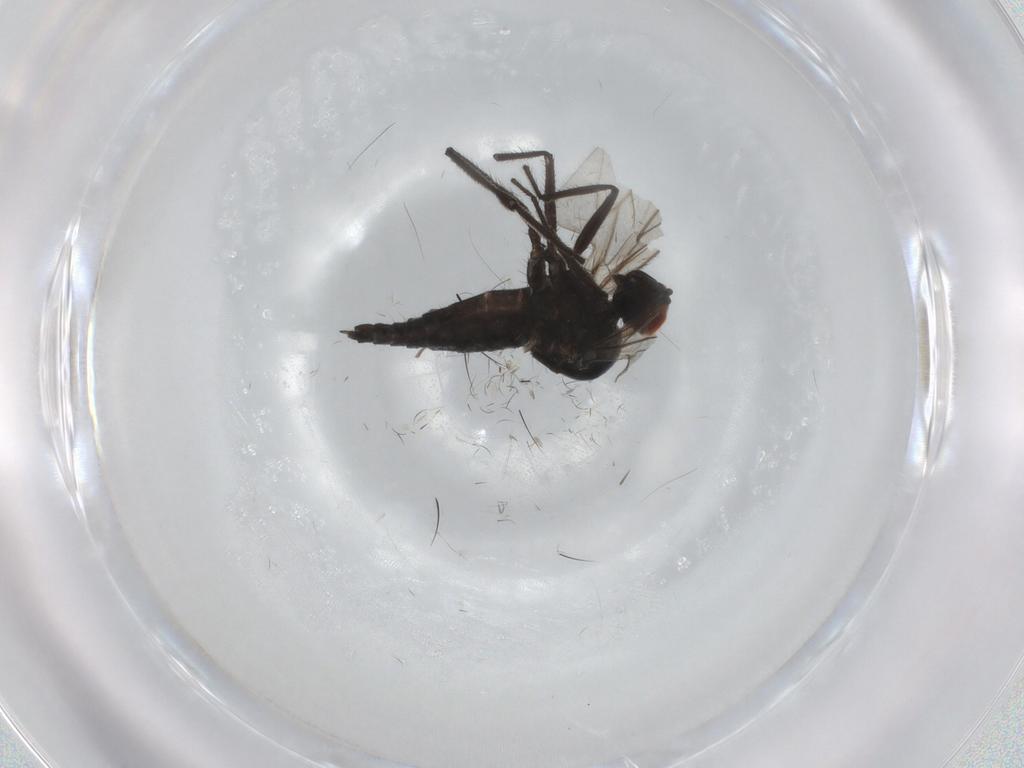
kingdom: Animalia
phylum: Arthropoda
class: Insecta
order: Diptera
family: Ceratopogonidae
